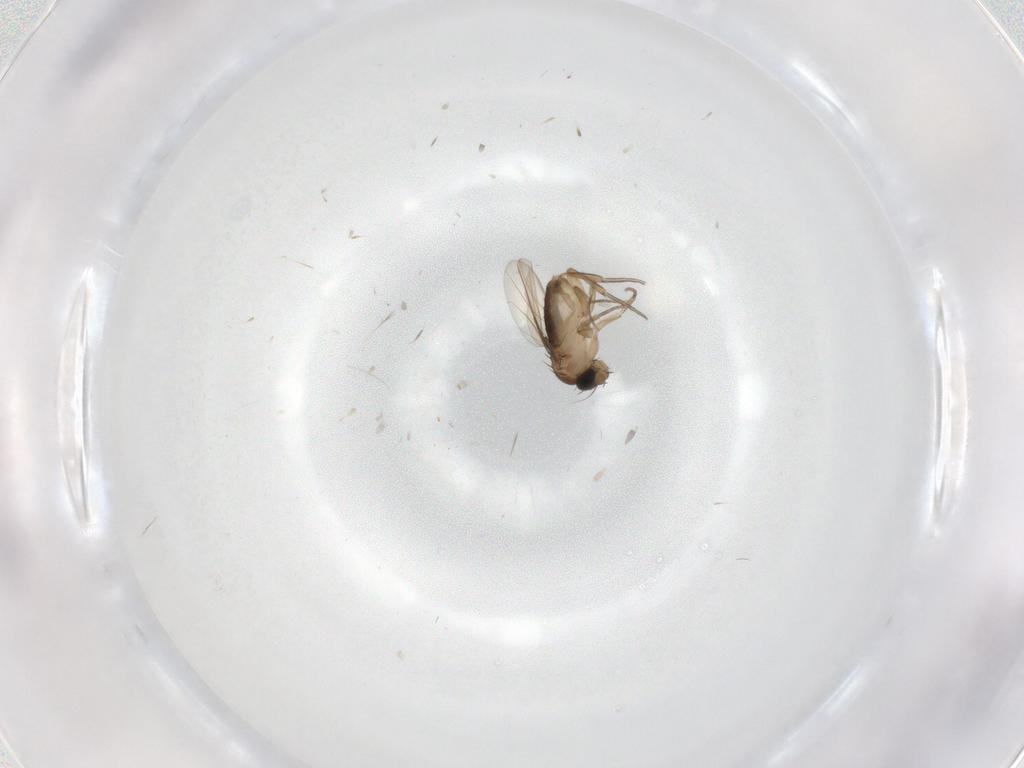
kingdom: Animalia
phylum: Arthropoda
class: Insecta
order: Diptera
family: Phoridae
